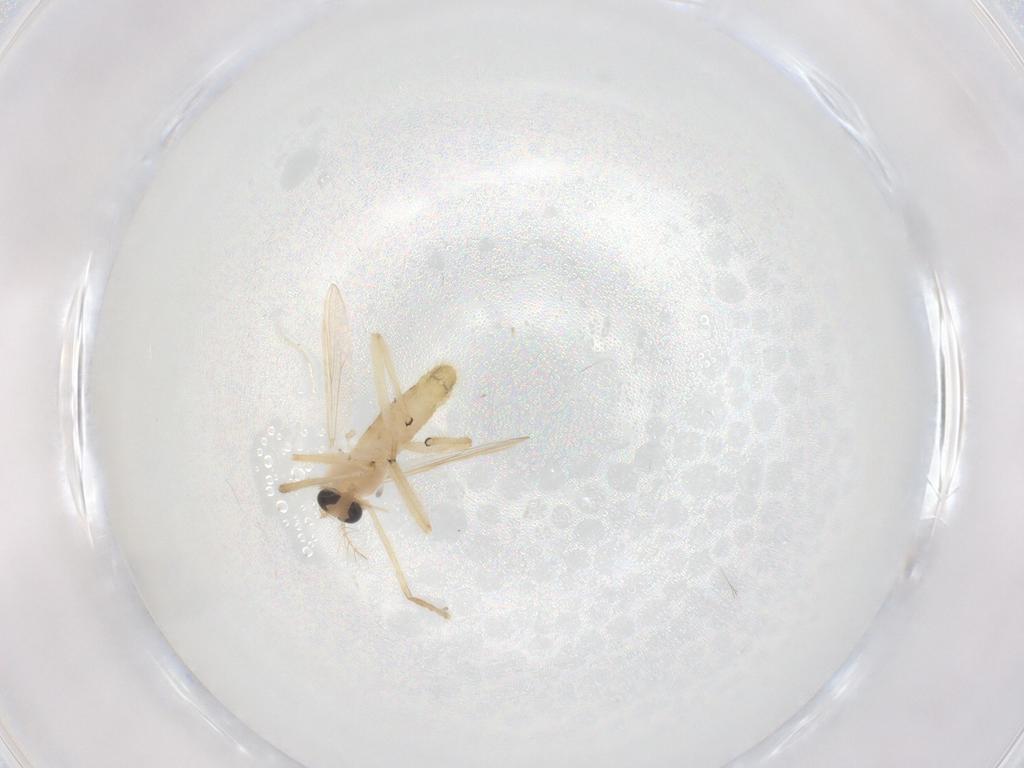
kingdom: Animalia
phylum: Arthropoda
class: Insecta
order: Diptera
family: Chironomidae
